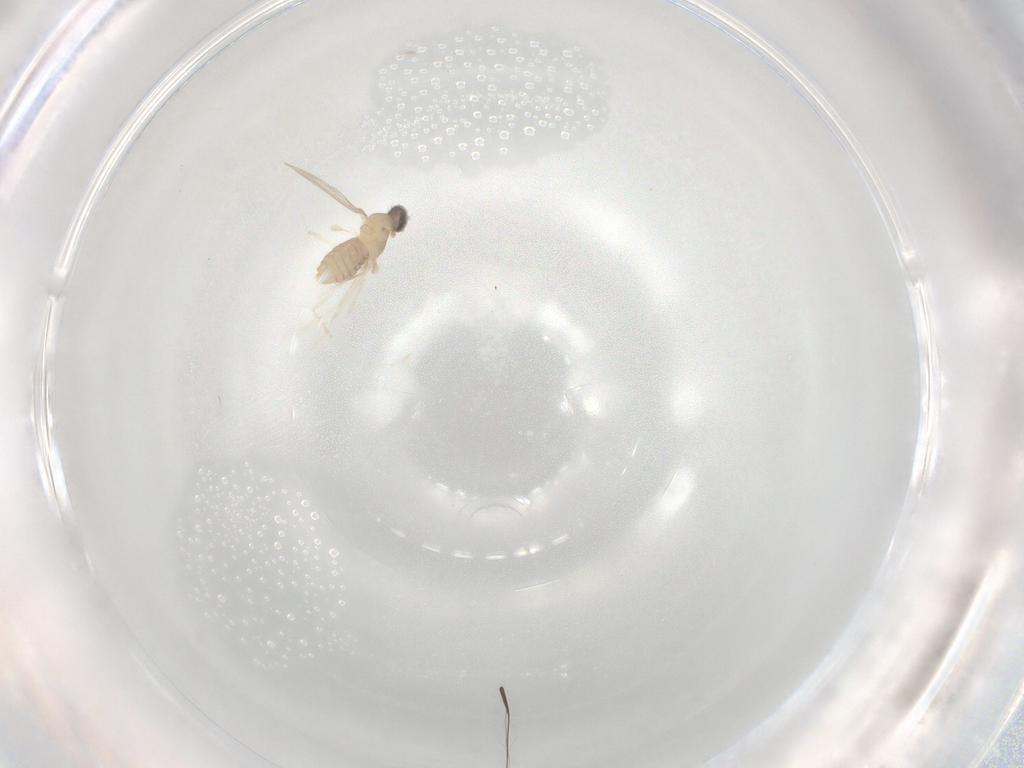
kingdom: Animalia
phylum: Arthropoda
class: Insecta
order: Diptera
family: Cecidomyiidae
